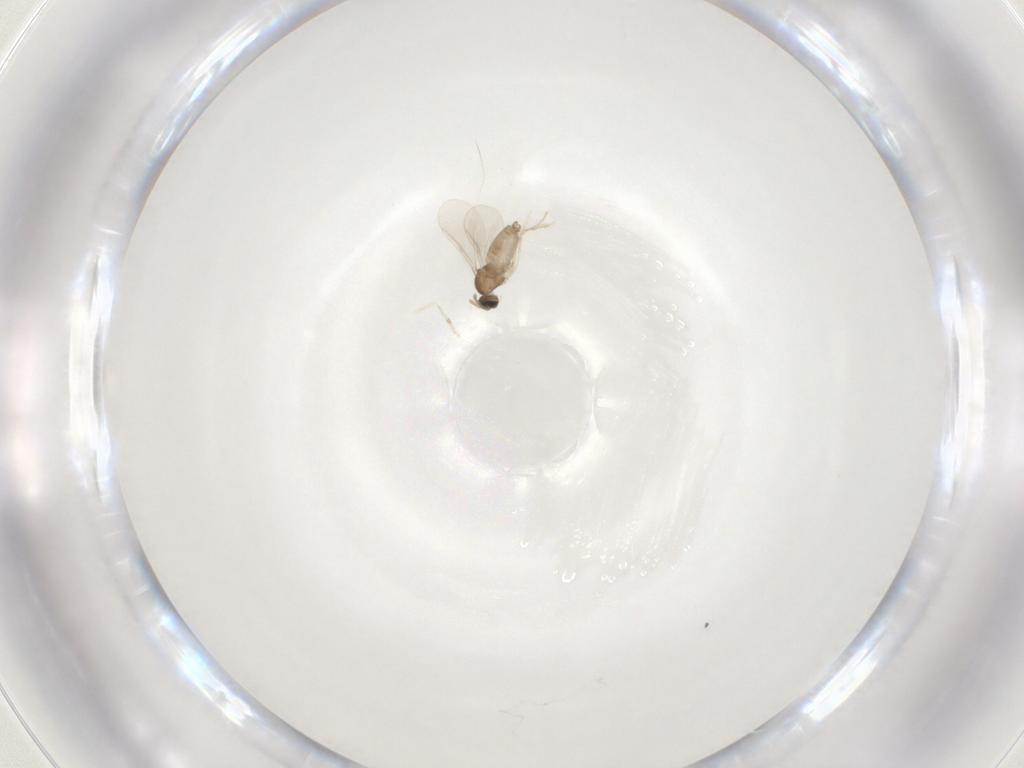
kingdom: Animalia
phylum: Arthropoda
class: Insecta
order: Diptera
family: Cecidomyiidae
